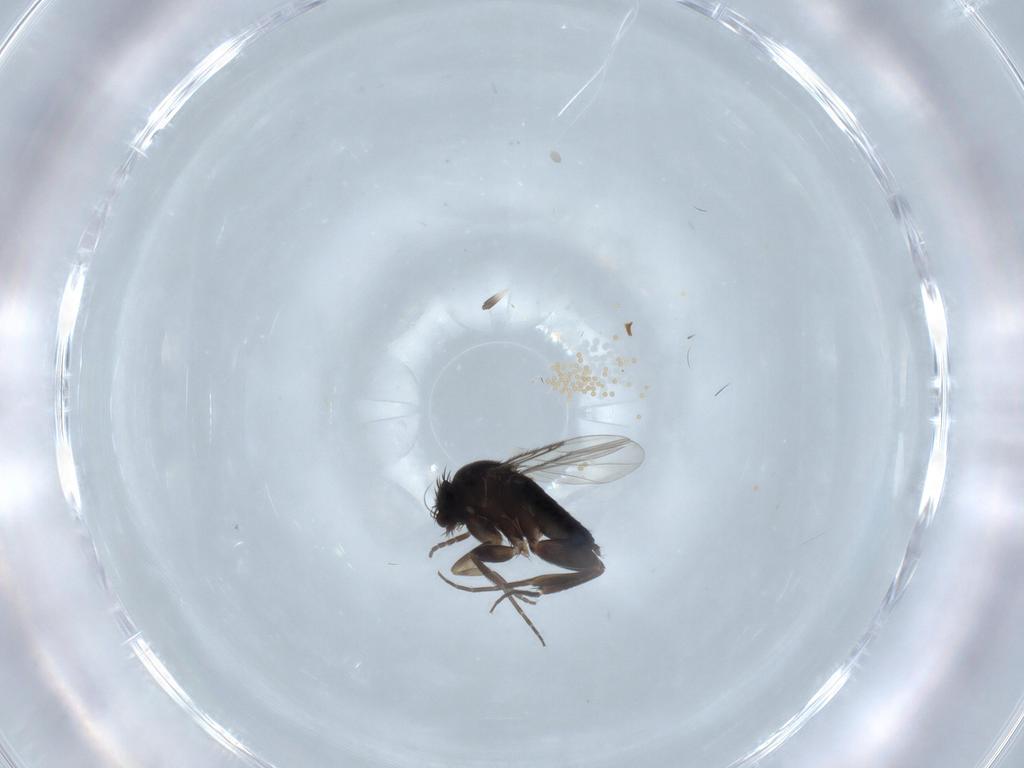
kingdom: Animalia
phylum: Arthropoda
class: Insecta
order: Diptera
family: Phoridae
